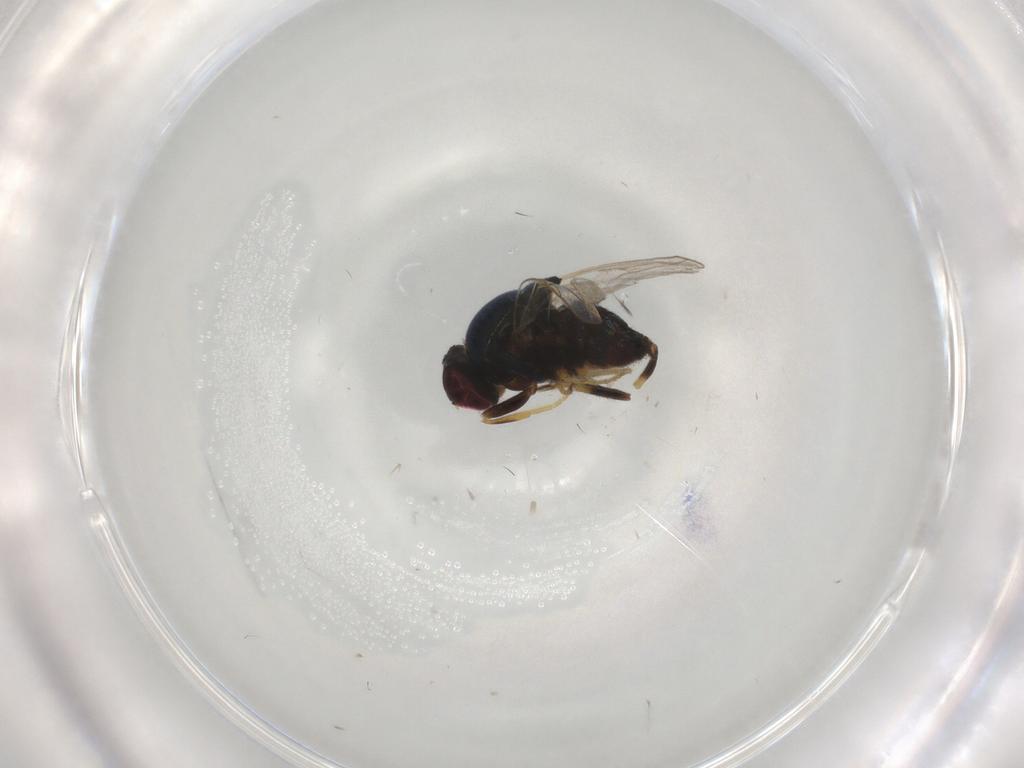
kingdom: Animalia
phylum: Arthropoda
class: Insecta
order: Diptera
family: Chloropidae
